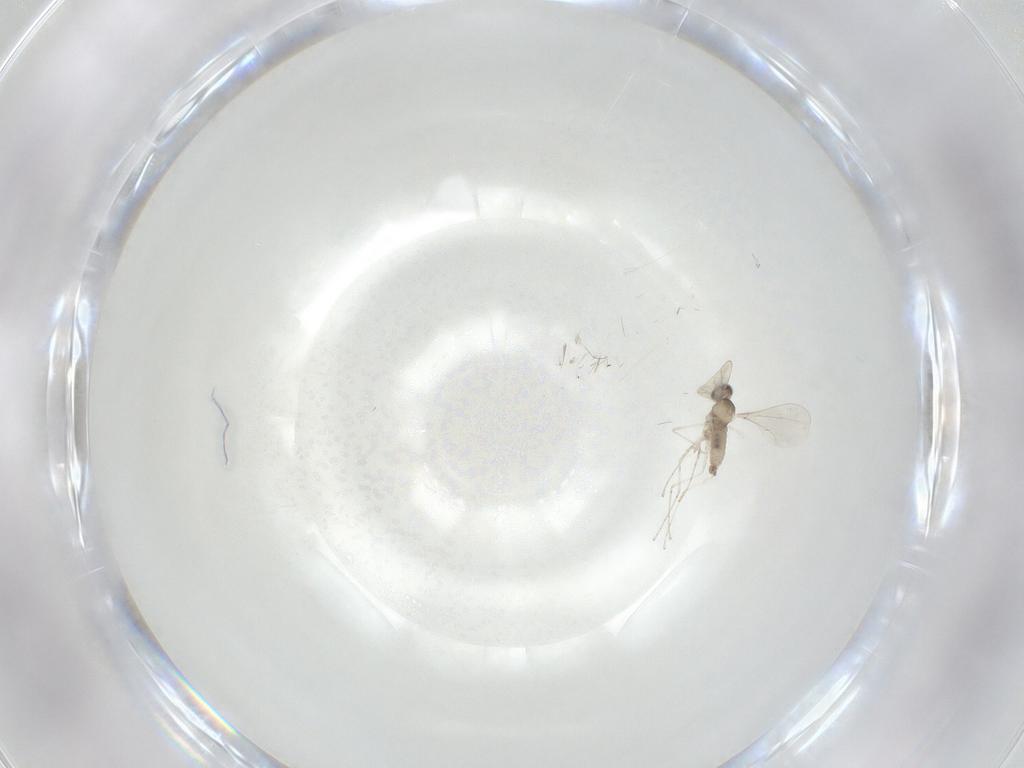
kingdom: Animalia
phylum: Arthropoda
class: Insecta
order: Diptera
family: Cecidomyiidae
